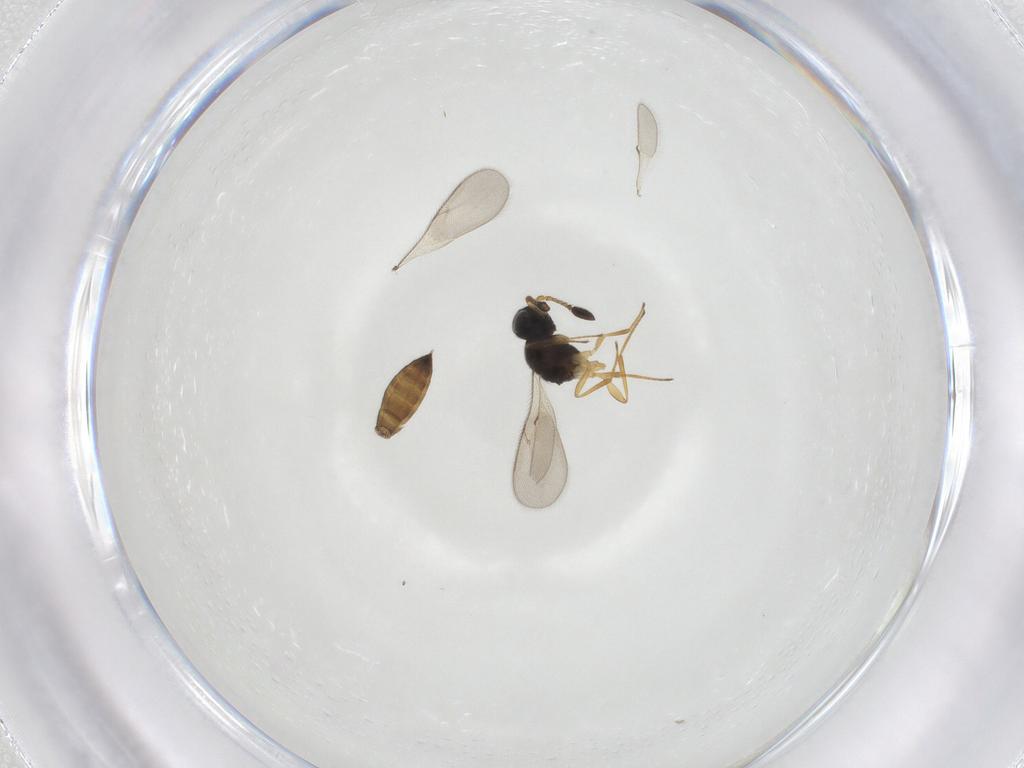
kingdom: Animalia
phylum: Arthropoda
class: Insecta
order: Hymenoptera
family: Scelionidae
